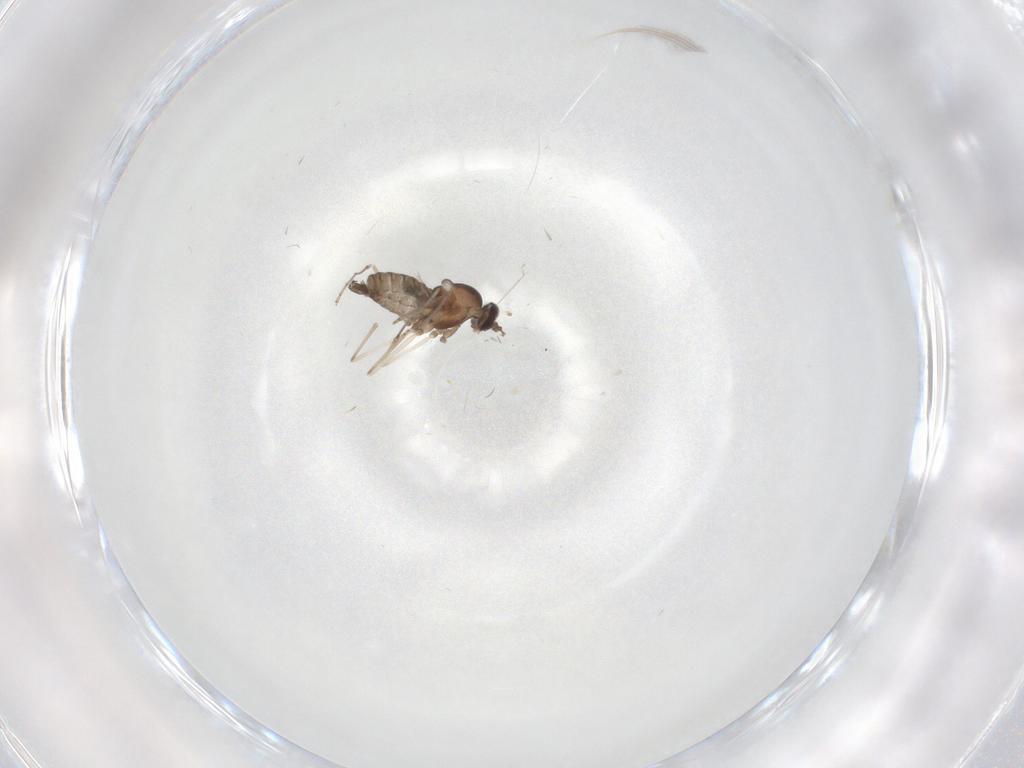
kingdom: Animalia
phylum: Arthropoda
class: Insecta
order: Diptera
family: Cecidomyiidae
